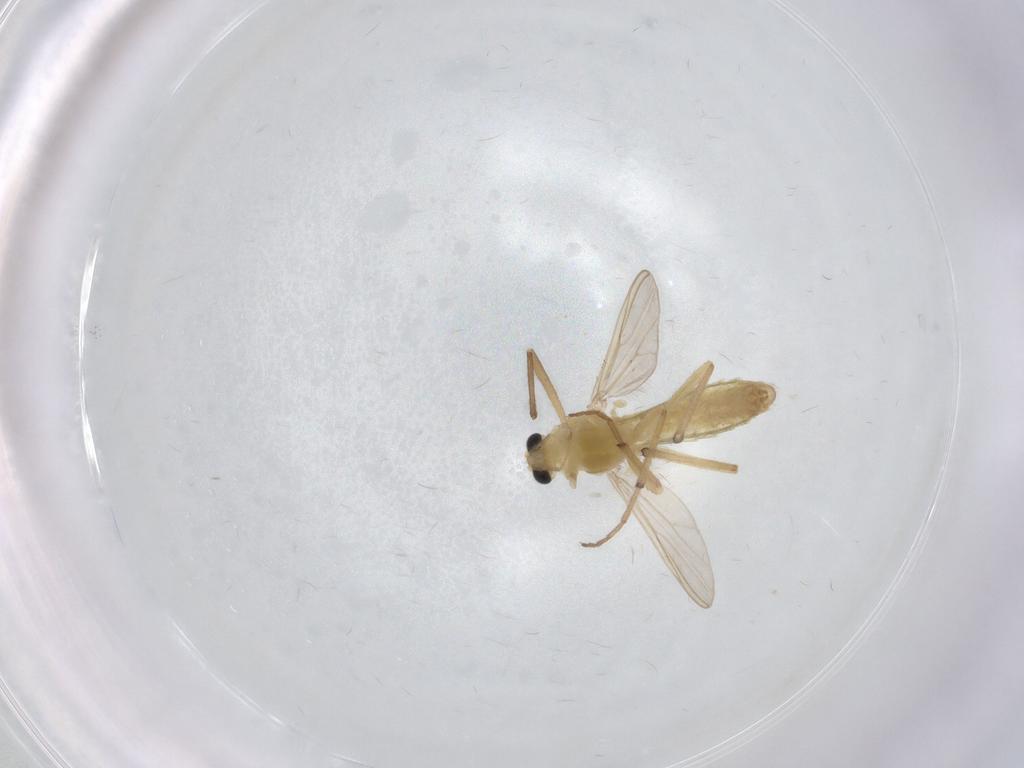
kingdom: Animalia
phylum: Arthropoda
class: Insecta
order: Diptera
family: Chironomidae
